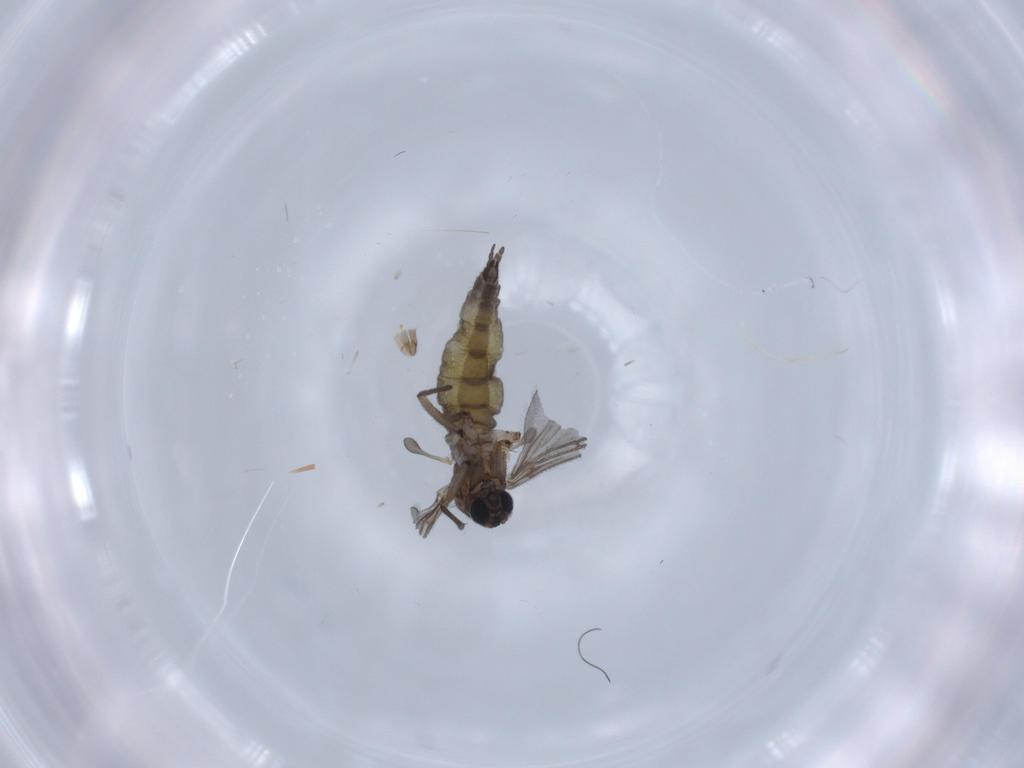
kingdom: Animalia
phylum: Arthropoda
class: Insecta
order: Diptera
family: Sciaridae
